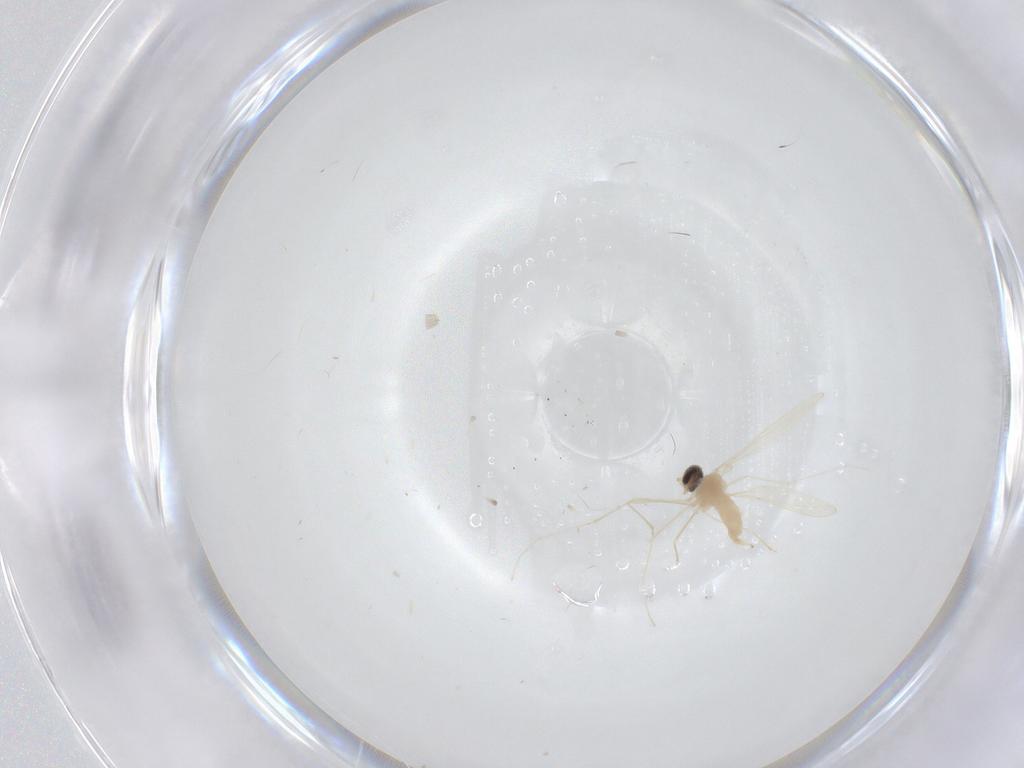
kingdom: Animalia
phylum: Arthropoda
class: Insecta
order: Diptera
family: Cecidomyiidae
